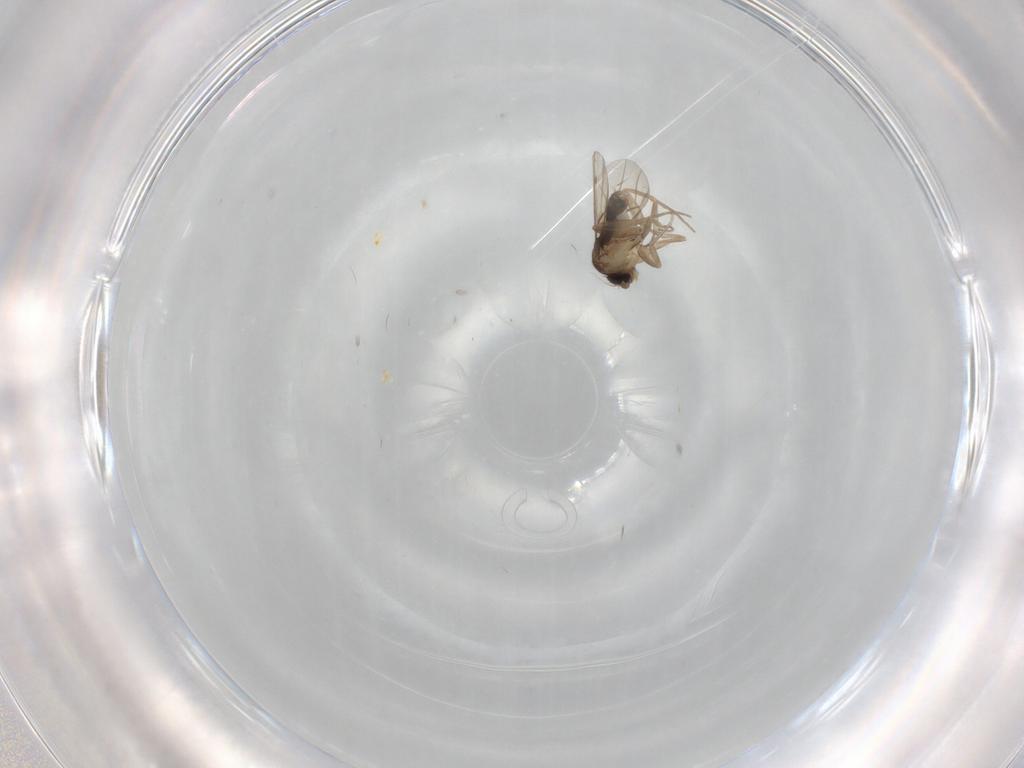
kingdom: Animalia
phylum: Arthropoda
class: Insecta
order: Diptera
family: Phoridae
